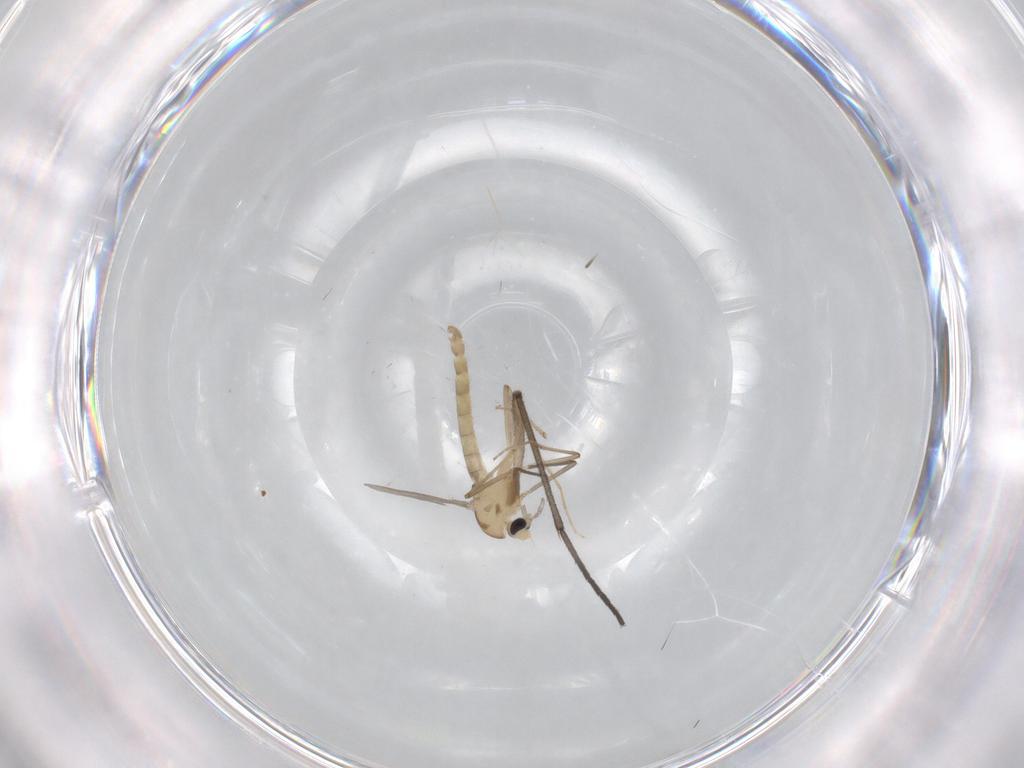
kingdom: Animalia
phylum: Arthropoda
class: Insecta
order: Diptera
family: Chironomidae
